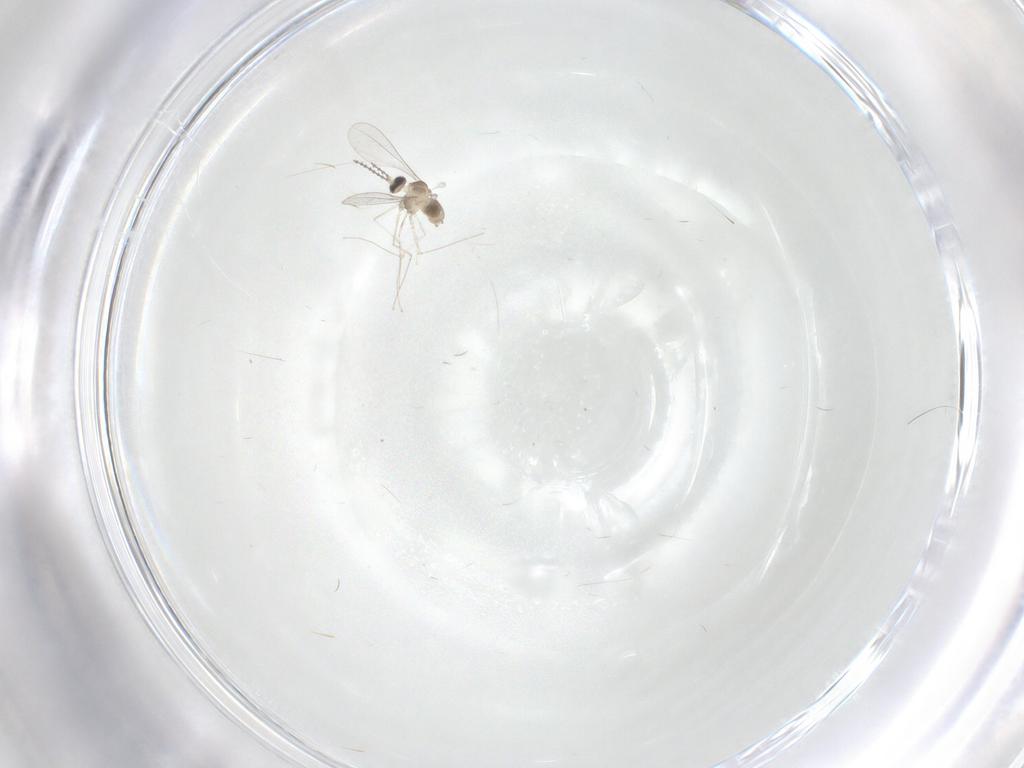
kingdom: Animalia
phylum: Arthropoda
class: Insecta
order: Diptera
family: Cecidomyiidae
